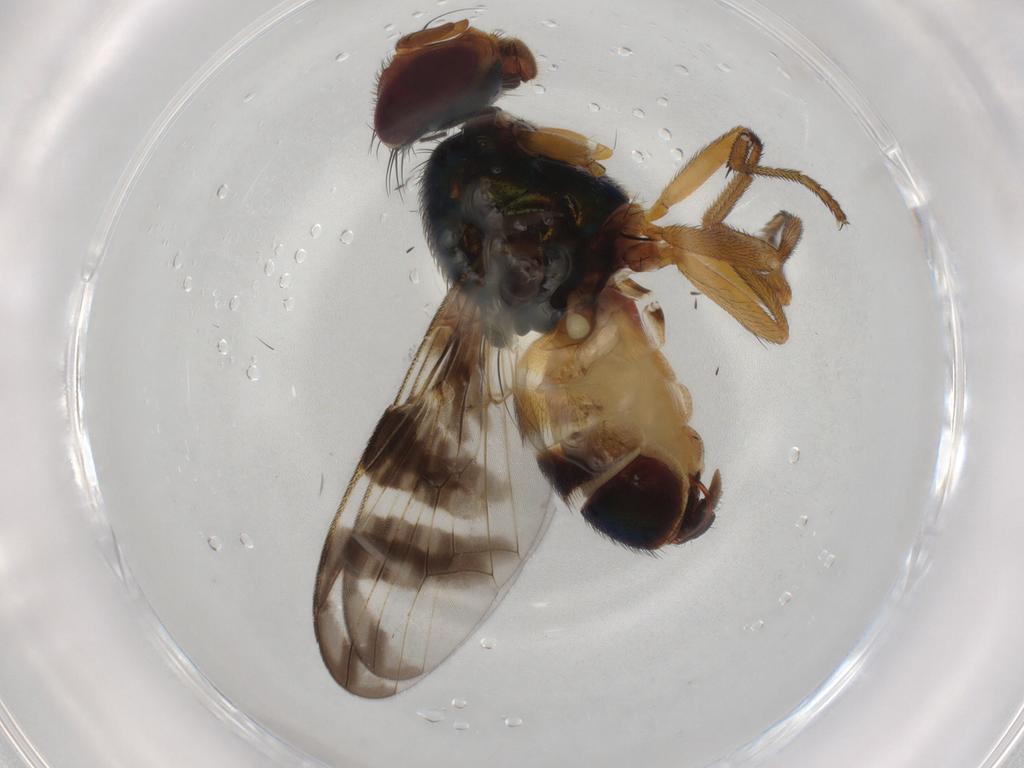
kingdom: Animalia
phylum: Arthropoda
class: Insecta
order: Diptera
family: Platystomatidae
